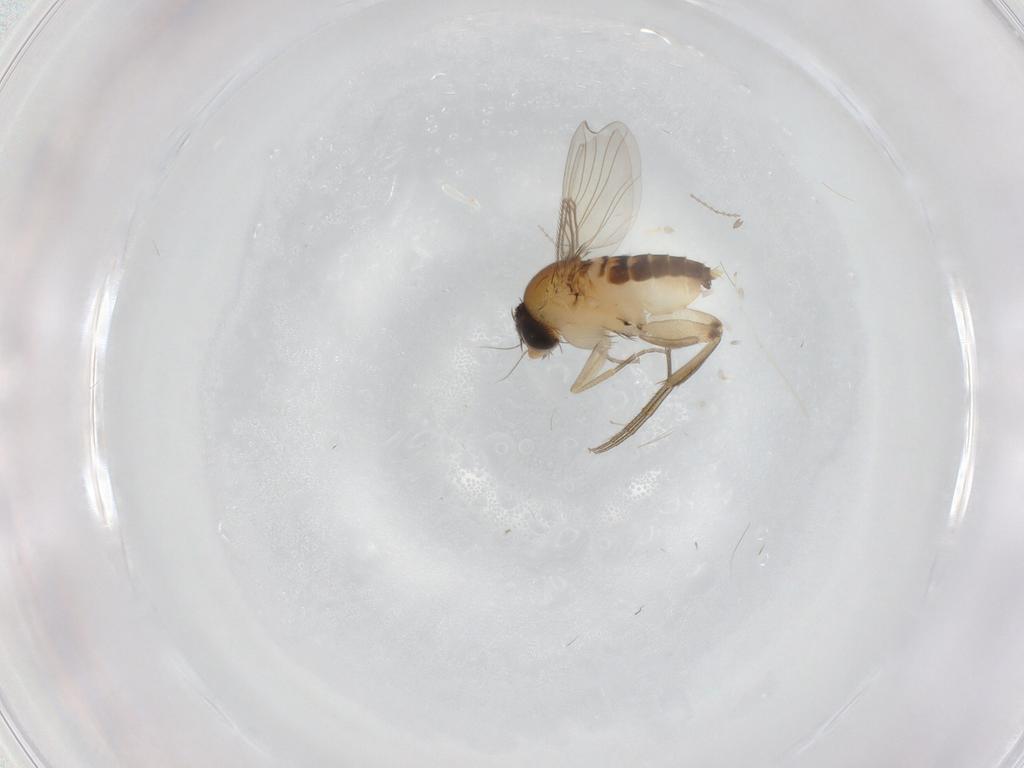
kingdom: Animalia
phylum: Arthropoda
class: Insecta
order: Diptera
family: Phoridae
